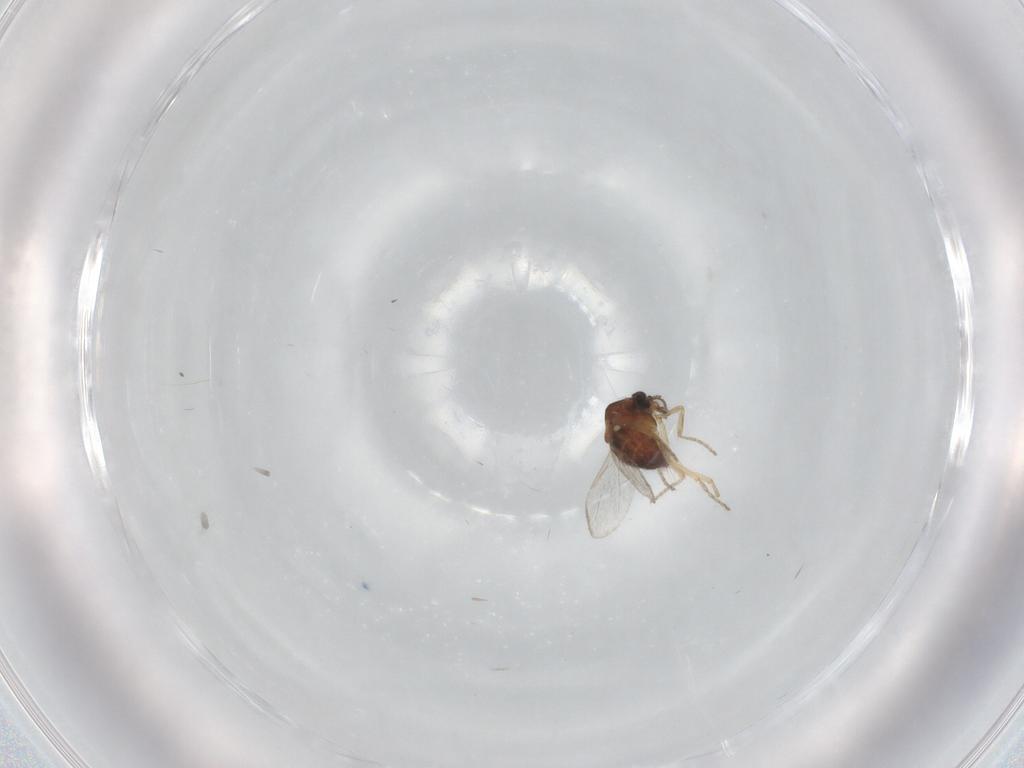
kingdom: Animalia
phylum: Arthropoda
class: Insecta
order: Diptera
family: Ceratopogonidae
